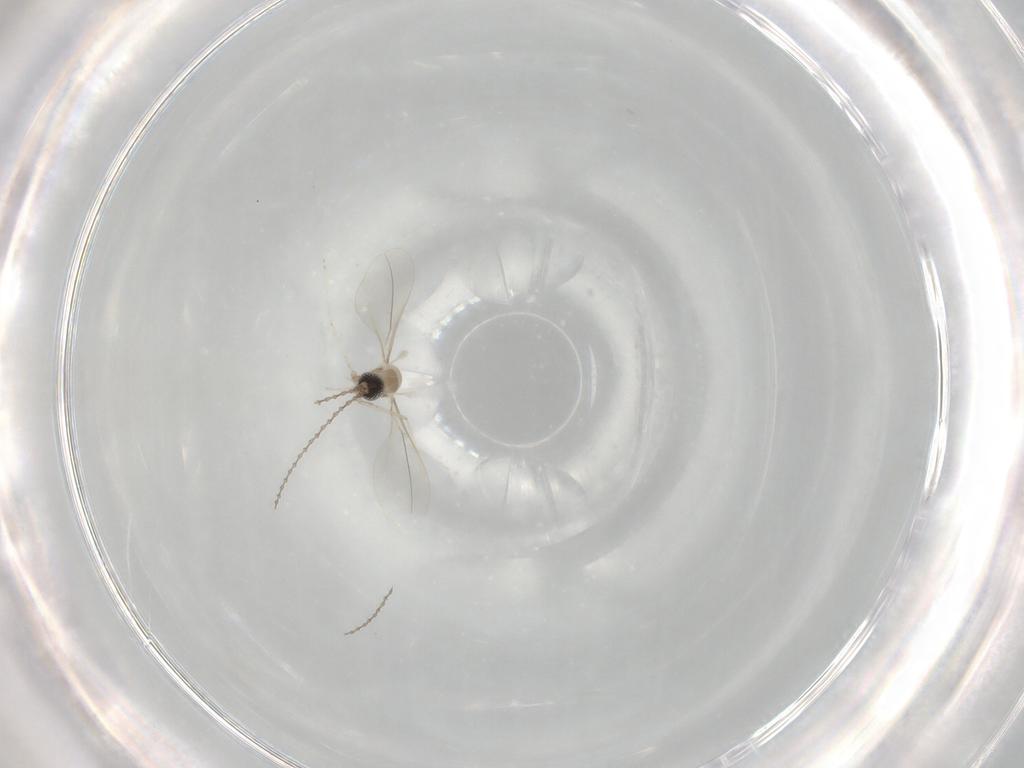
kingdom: Animalia
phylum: Arthropoda
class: Insecta
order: Diptera
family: Cecidomyiidae
